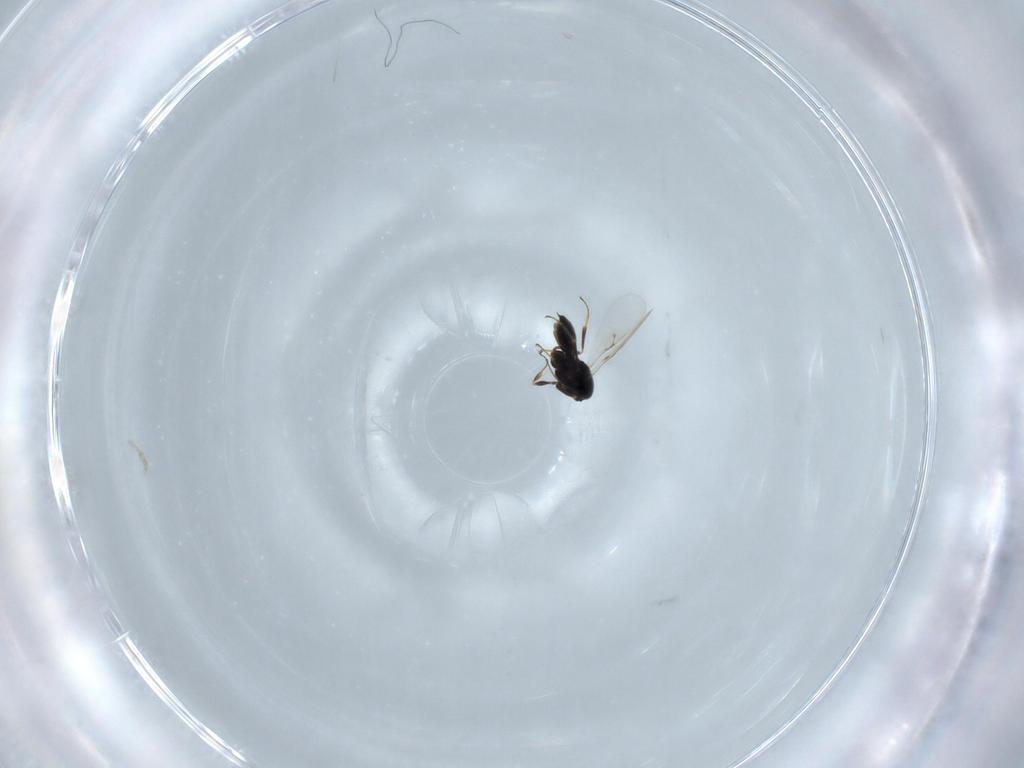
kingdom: Animalia
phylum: Arthropoda
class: Insecta
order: Hymenoptera
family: Scelionidae
